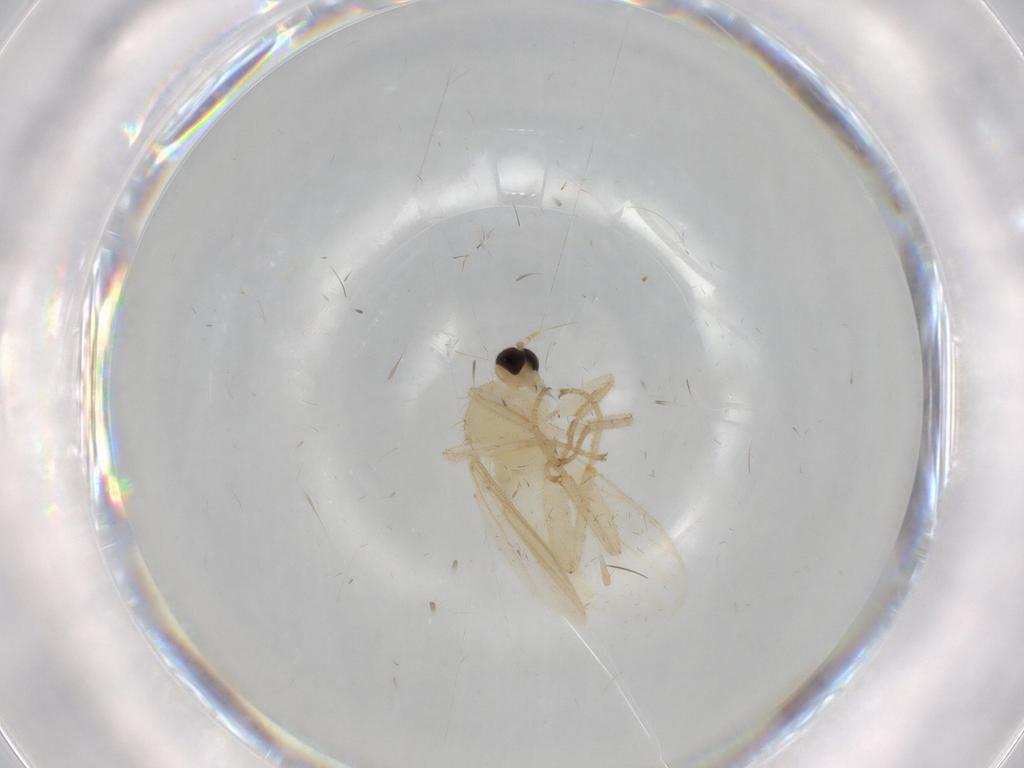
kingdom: Animalia
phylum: Arthropoda
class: Insecta
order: Diptera
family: Hybotidae
